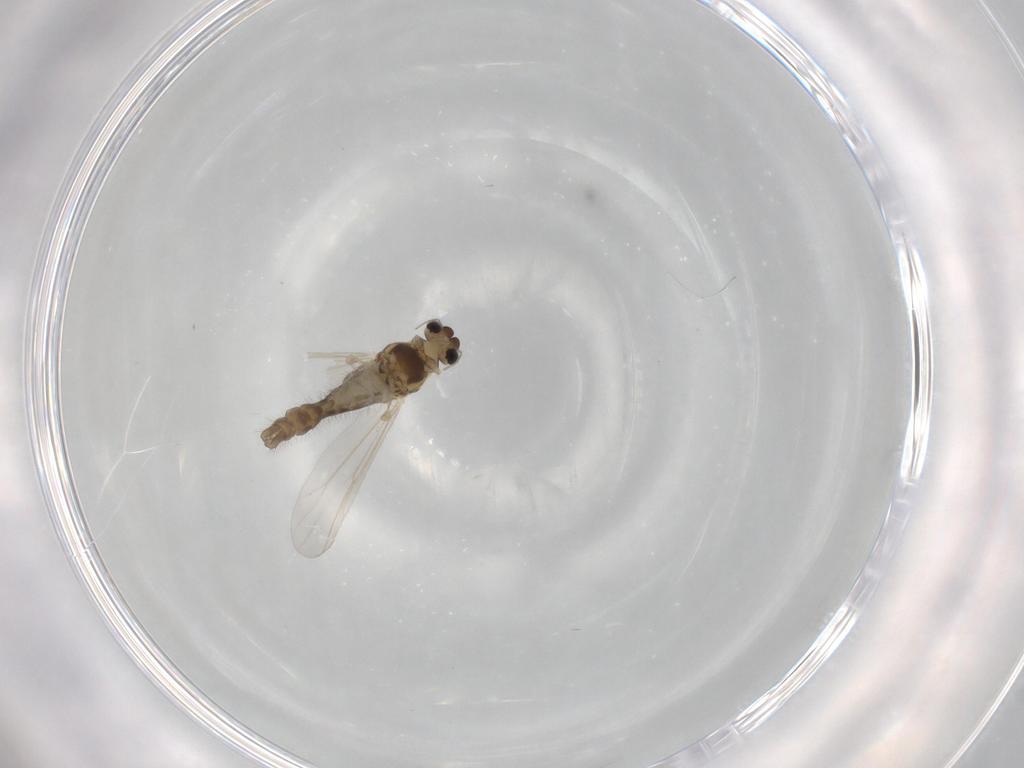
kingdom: Animalia
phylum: Arthropoda
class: Insecta
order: Diptera
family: Chironomidae
